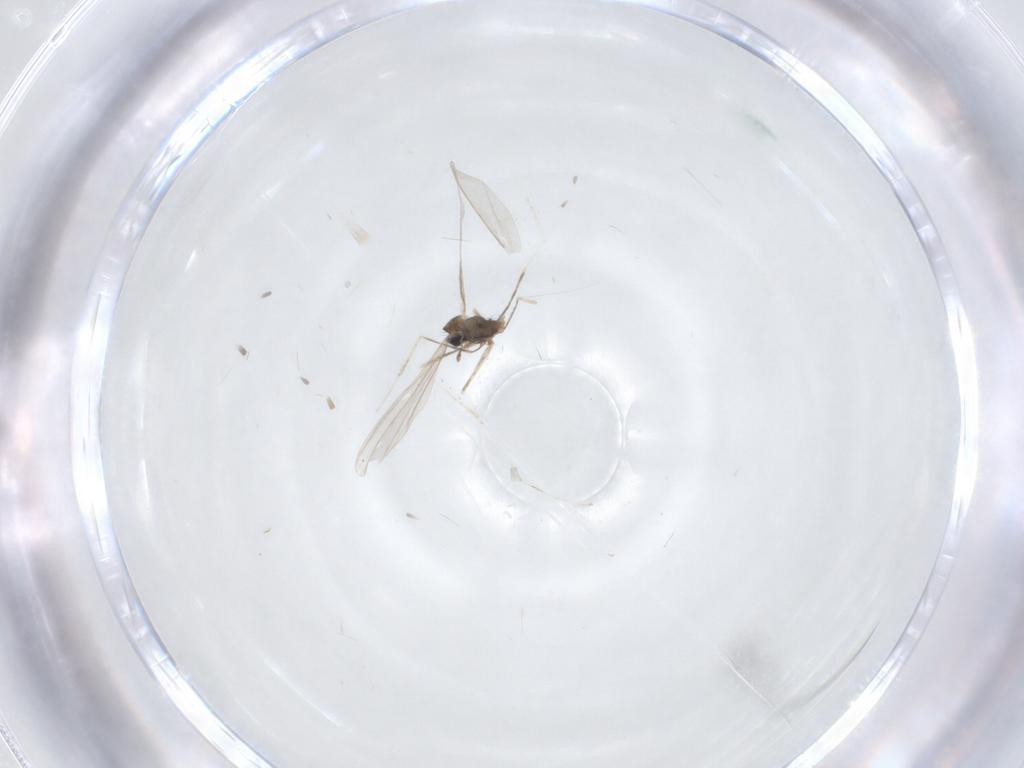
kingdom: Animalia
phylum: Arthropoda
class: Insecta
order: Diptera
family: Cecidomyiidae
